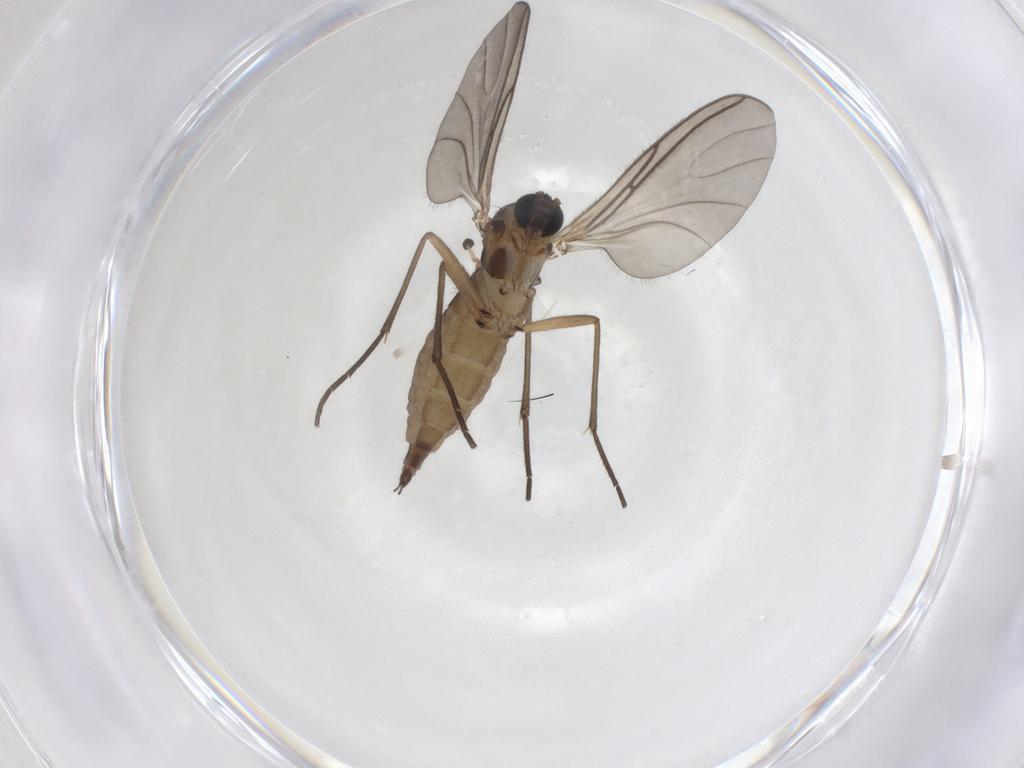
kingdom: Animalia
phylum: Arthropoda
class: Insecta
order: Diptera
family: Sciaridae
